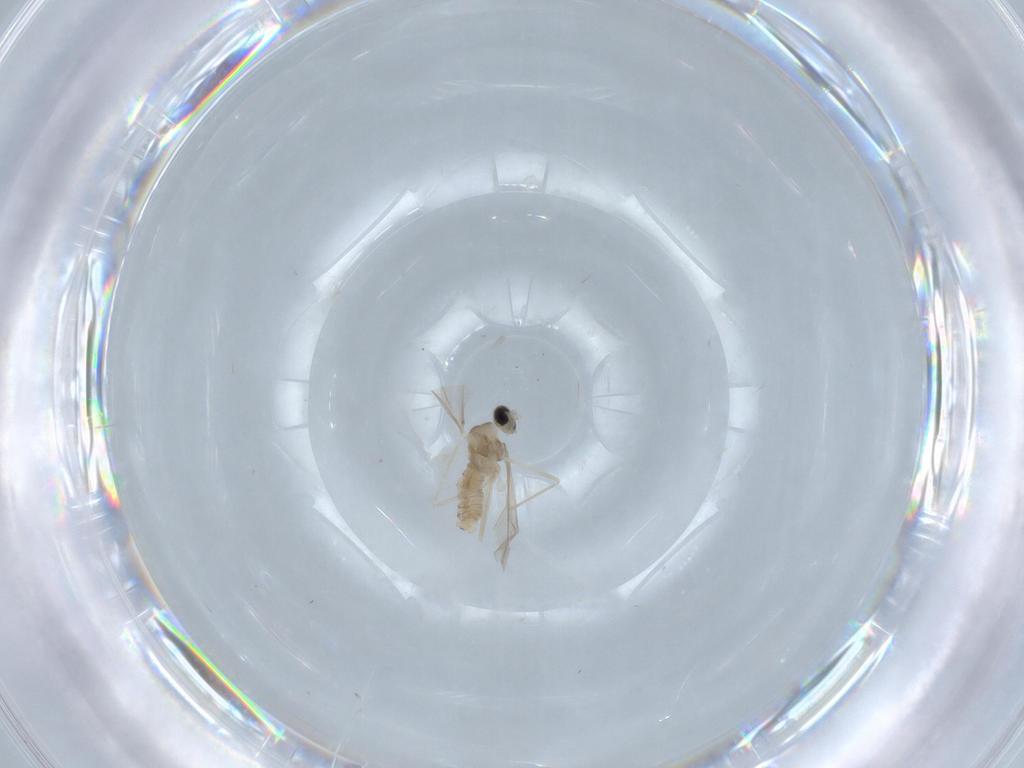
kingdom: Animalia
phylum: Arthropoda
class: Insecta
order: Diptera
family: Cecidomyiidae
